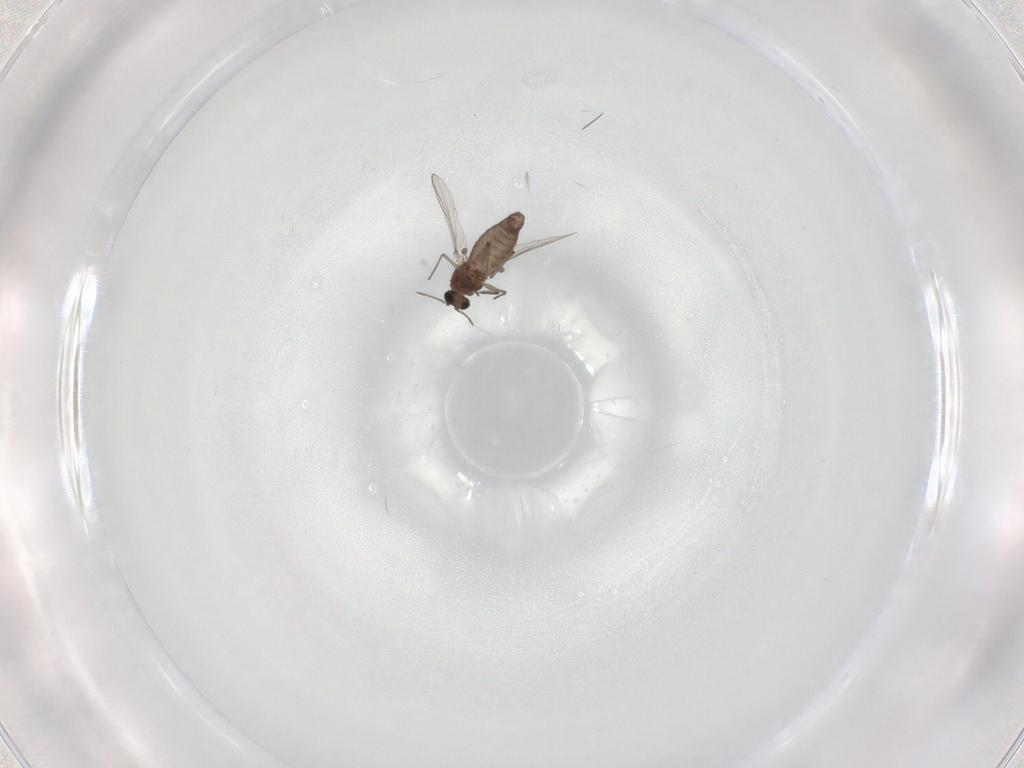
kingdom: Animalia
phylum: Arthropoda
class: Insecta
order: Diptera
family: Chironomidae
